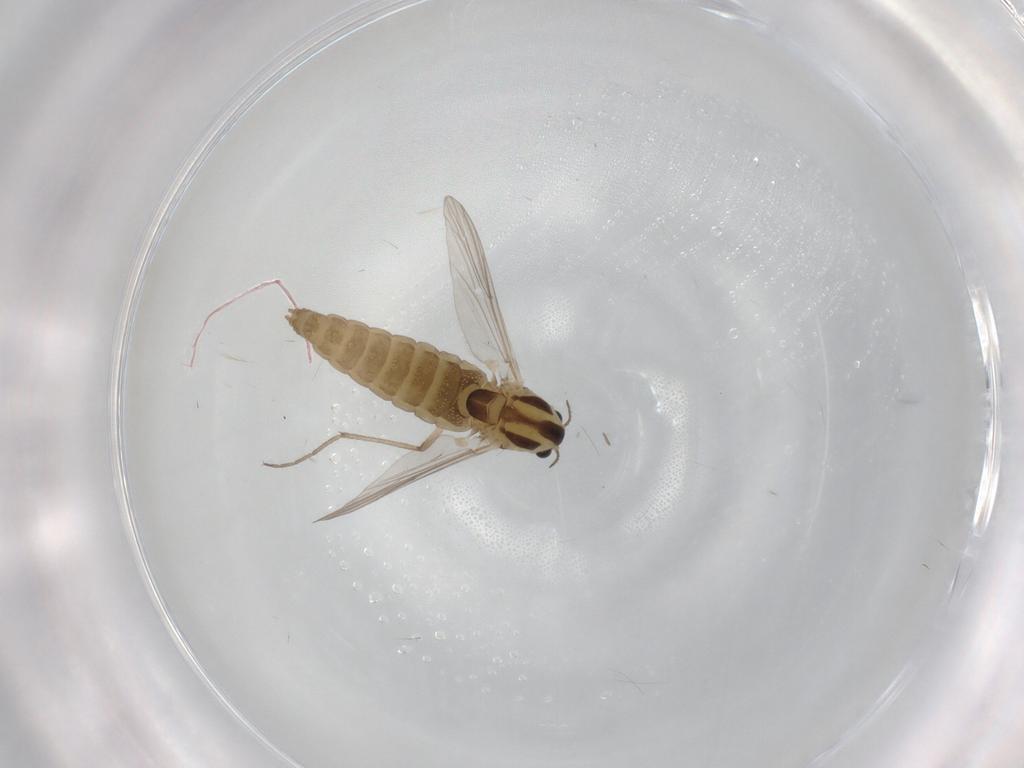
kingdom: Animalia
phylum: Arthropoda
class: Insecta
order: Diptera
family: Chironomidae
